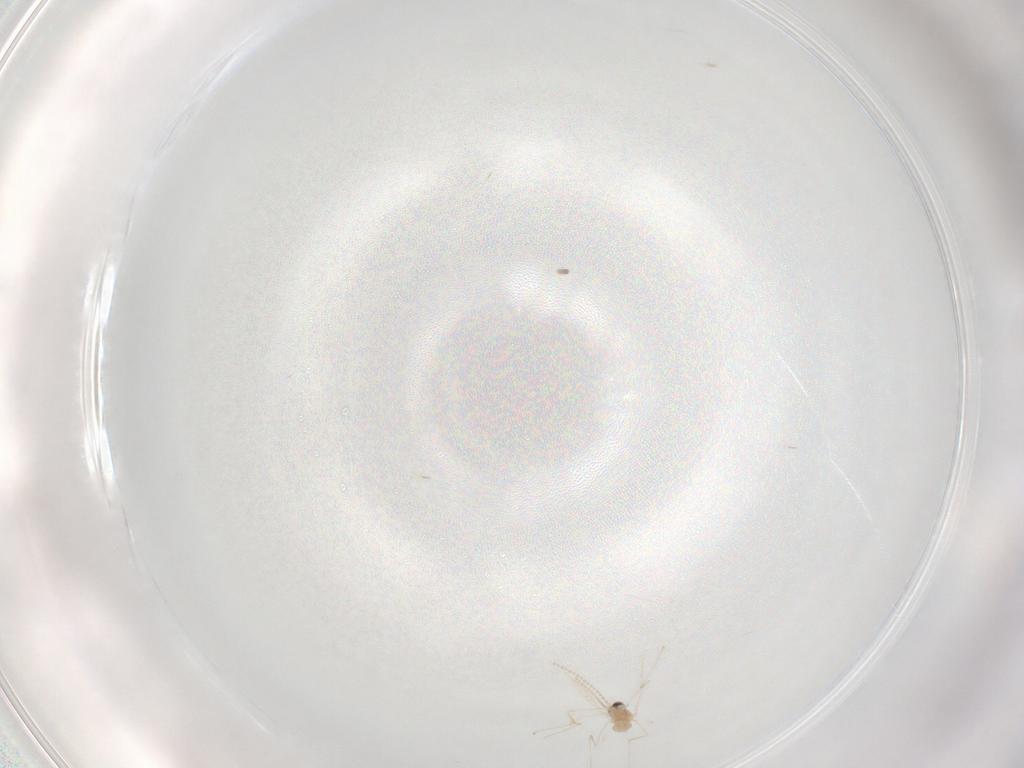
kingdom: Animalia
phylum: Arthropoda
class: Insecta
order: Diptera
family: Cecidomyiidae
